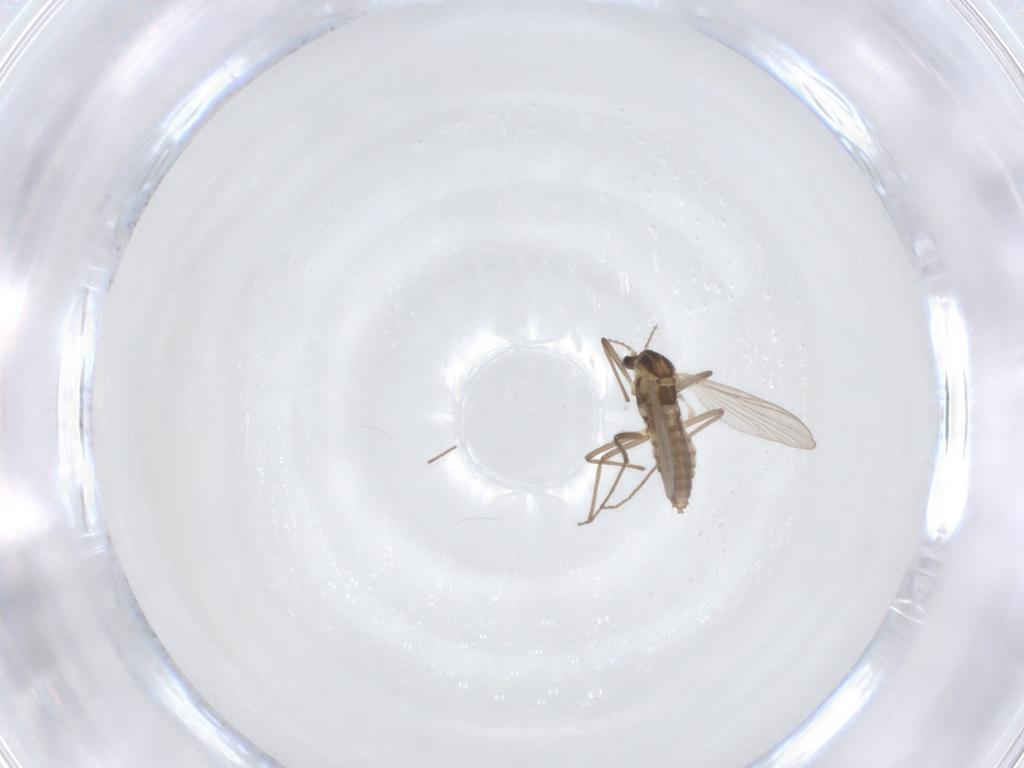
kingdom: Animalia
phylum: Arthropoda
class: Insecta
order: Diptera
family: Chironomidae
